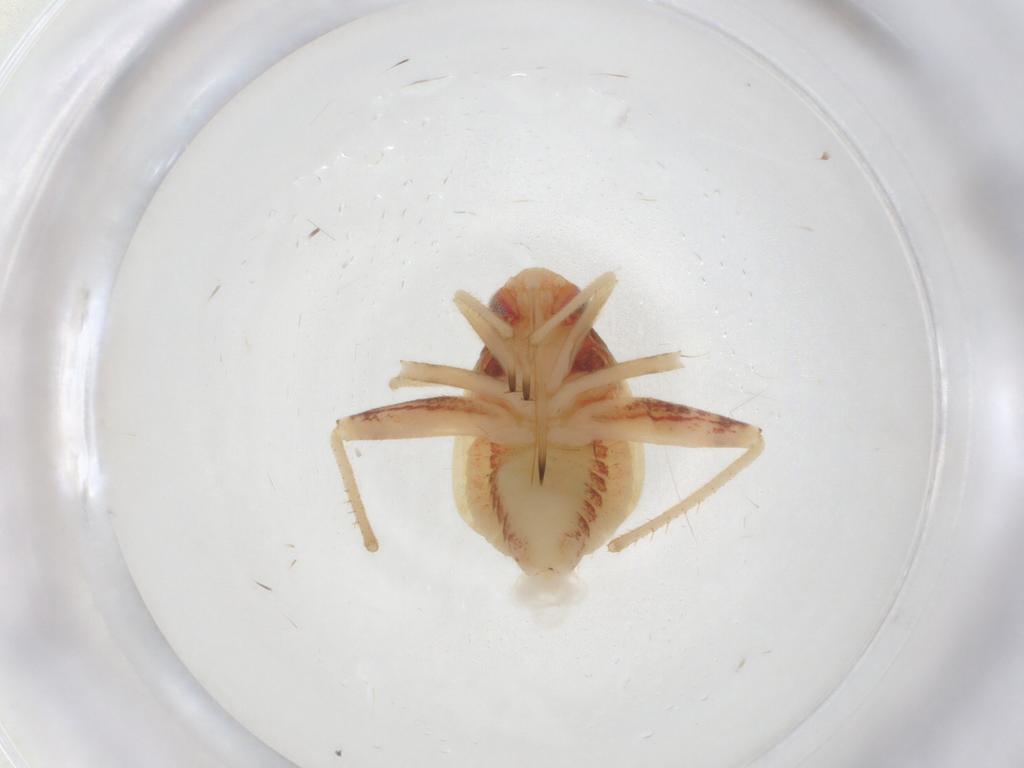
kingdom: Animalia
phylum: Arthropoda
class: Insecta
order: Hemiptera
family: Miridae
